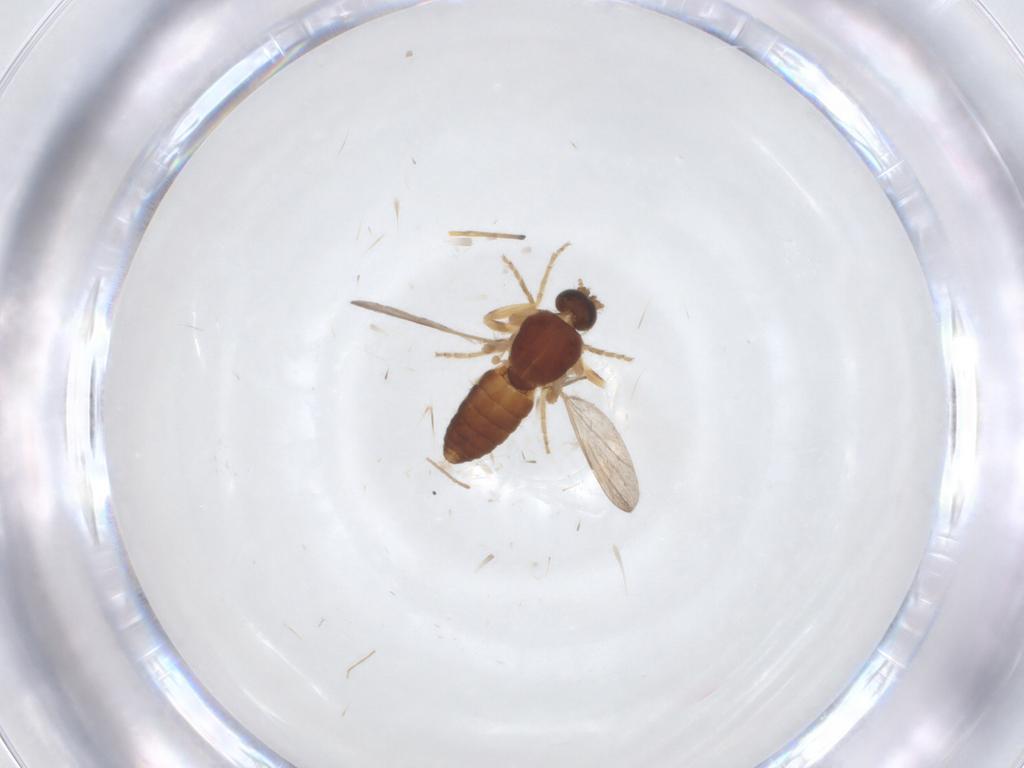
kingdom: Animalia
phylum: Arthropoda
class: Insecta
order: Diptera
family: Cecidomyiidae
